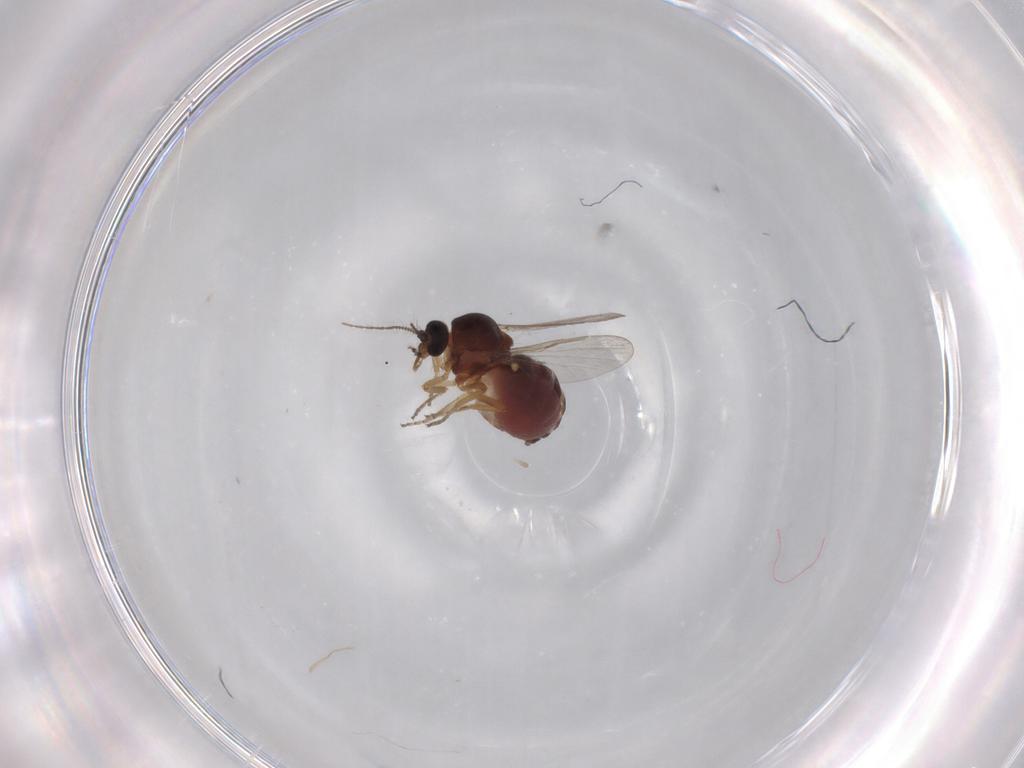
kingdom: Animalia
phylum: Arthropoda
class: Insecta
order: Diptera
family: Ceratopogonidae
